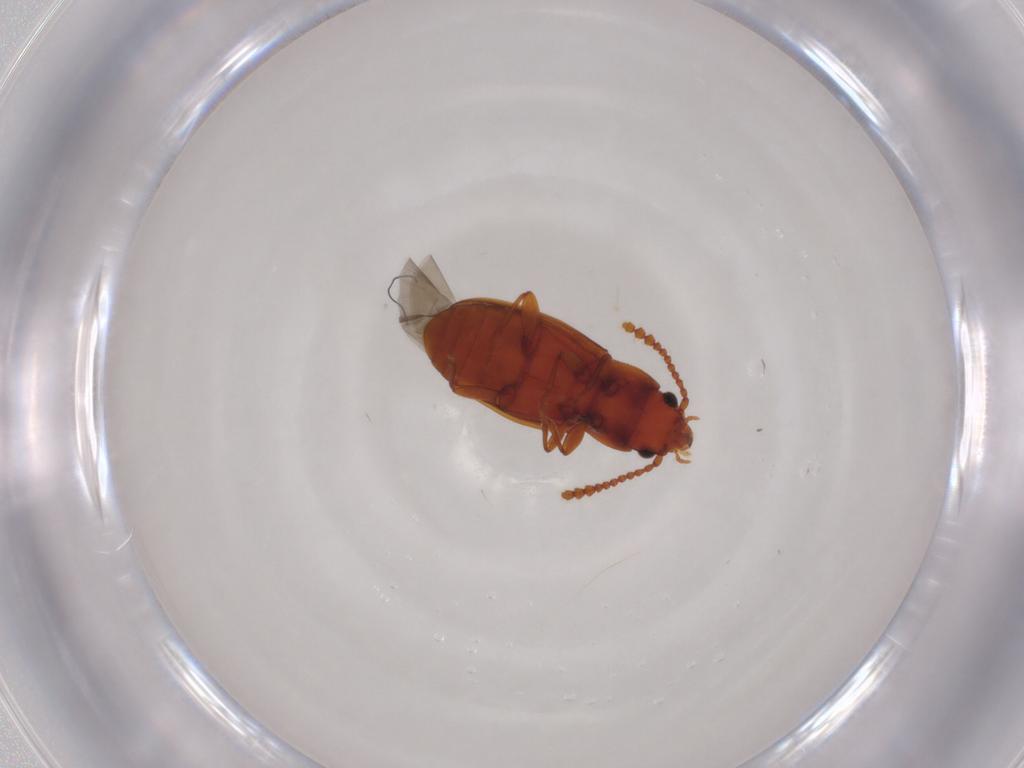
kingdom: Animalia
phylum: Arthropoda
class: Insecta
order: Coleoptera
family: Laemophloeidae
